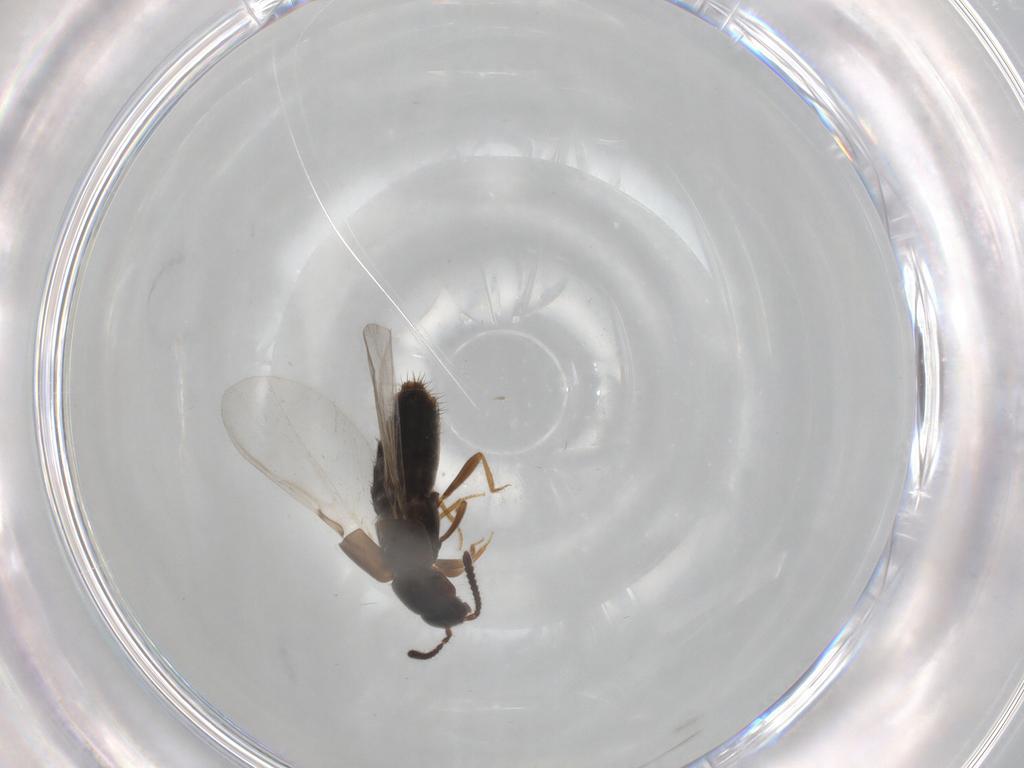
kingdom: Animalia
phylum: Arthropoda
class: Insecta
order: Coleoptera
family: Staphylinidae
